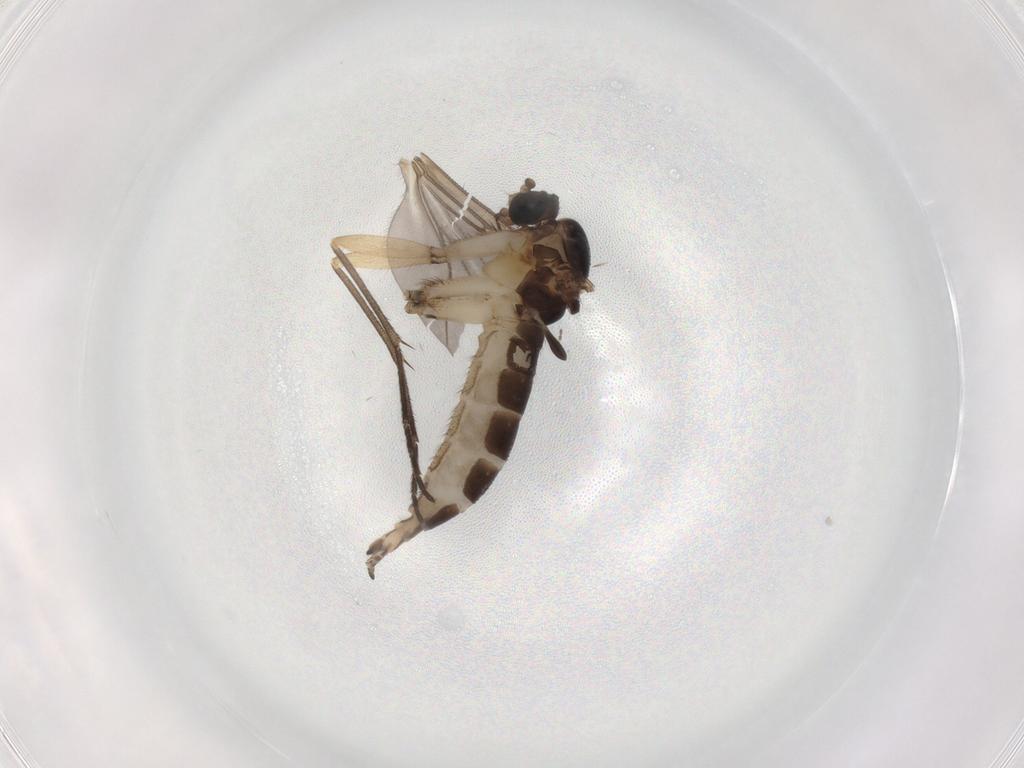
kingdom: Animalia
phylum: Arthropoda
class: Insecta
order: Diptera
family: Sciaridae
